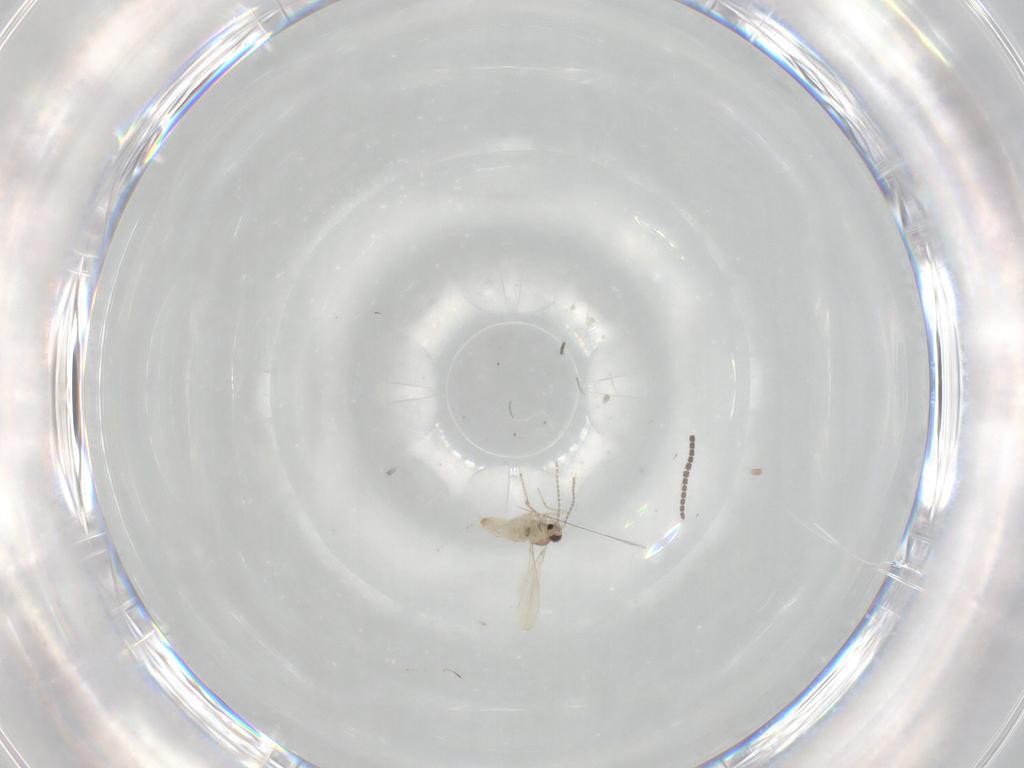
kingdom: Animalia
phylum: Arthropoda
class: Insecta
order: Diptera
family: Cecidomyiidae
